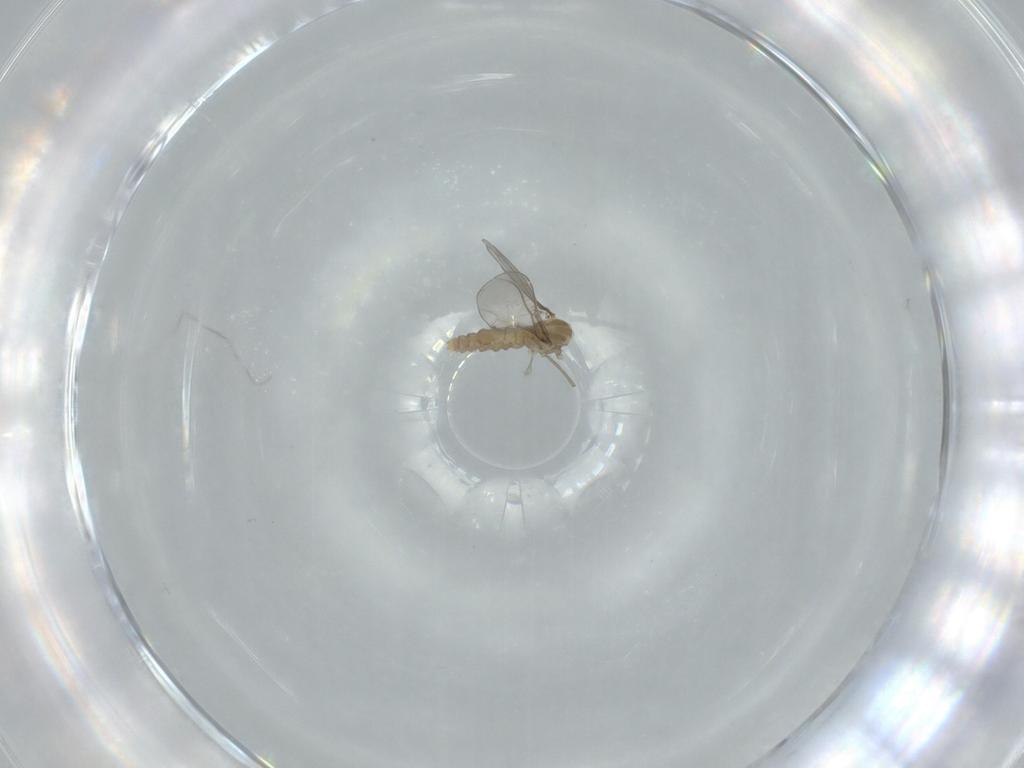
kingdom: Animalia
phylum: Arthropoda
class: Insecta
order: Diptera
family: Cecidomyiidae
